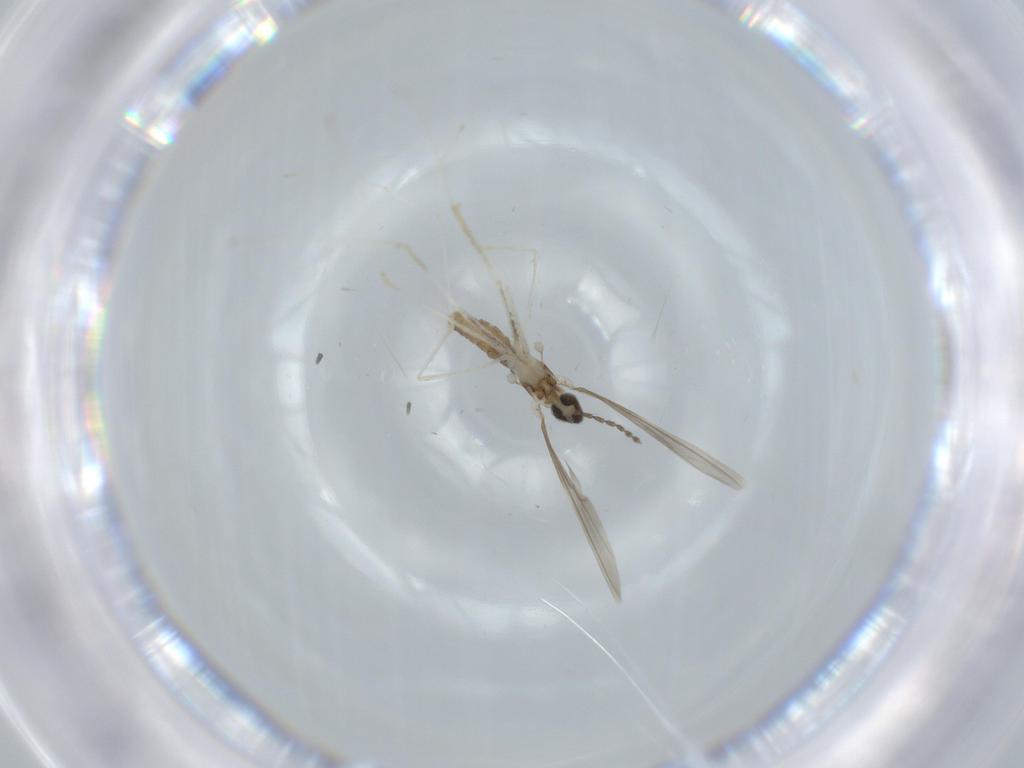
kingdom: Animalia
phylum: Arthropoda
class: Insecta
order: Diptera
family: Cecidomyiidae
